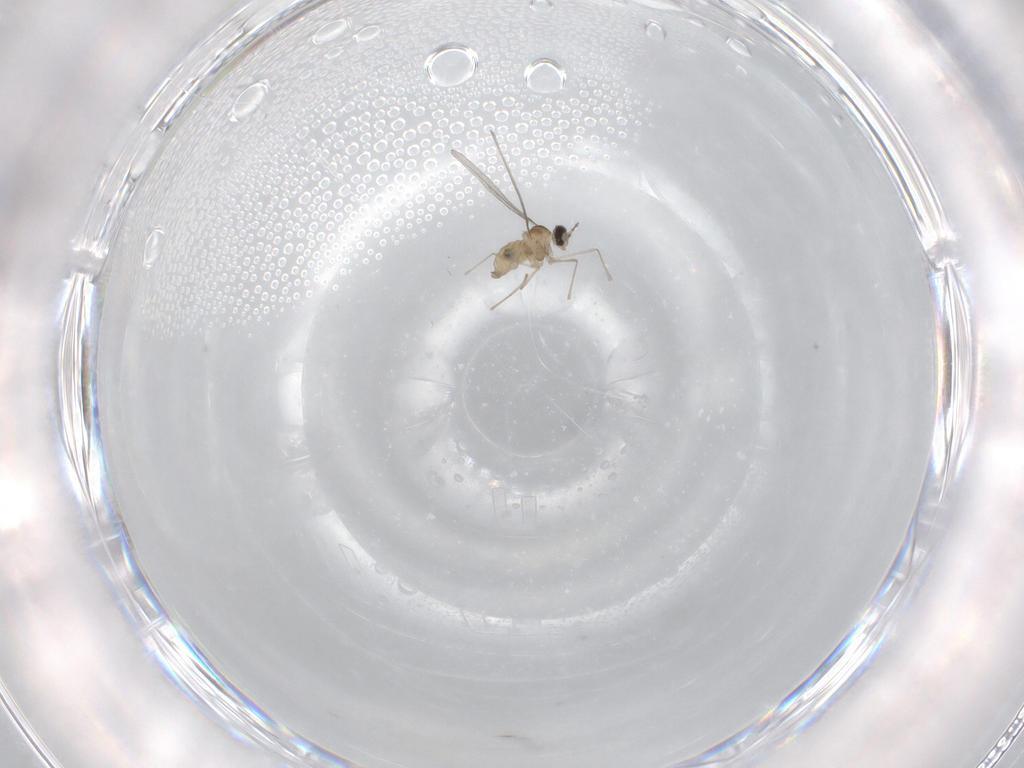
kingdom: Animalia
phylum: Arthropoda
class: Insecta
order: Diptera
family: Cecidomyiidae
